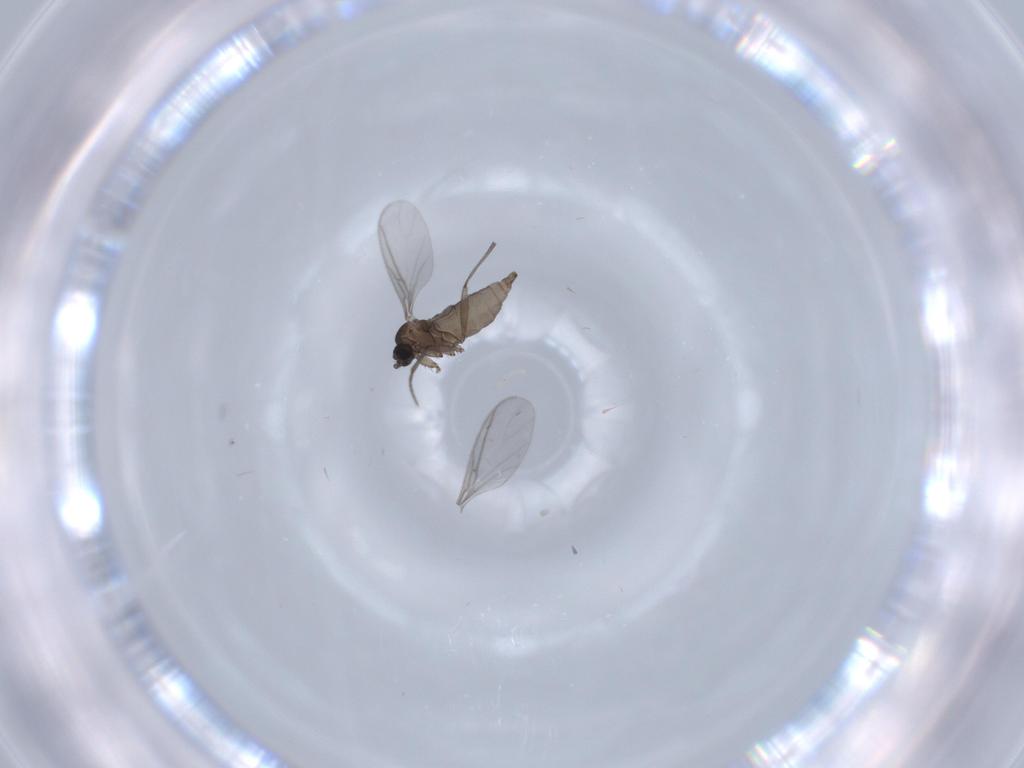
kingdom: Animalia
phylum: Arthropoda
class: Insecta
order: Diptera
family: Sciaridae
